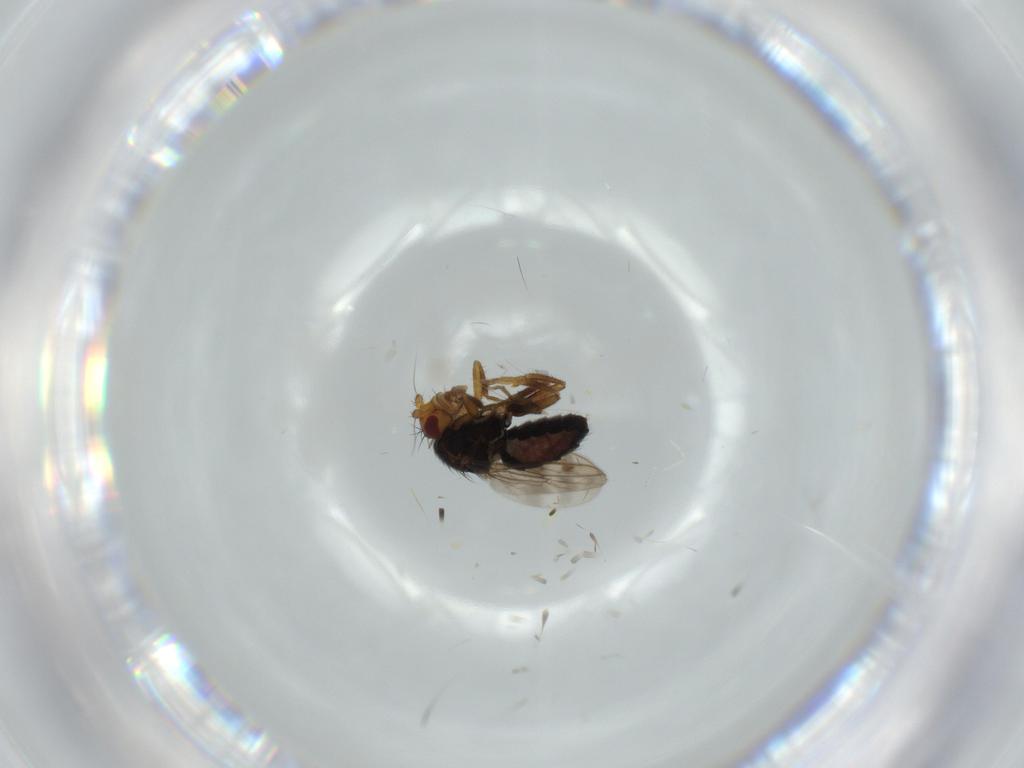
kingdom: Animalia
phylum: Arthropoda
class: Insecta
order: Diptera
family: Sphaeroceridae
